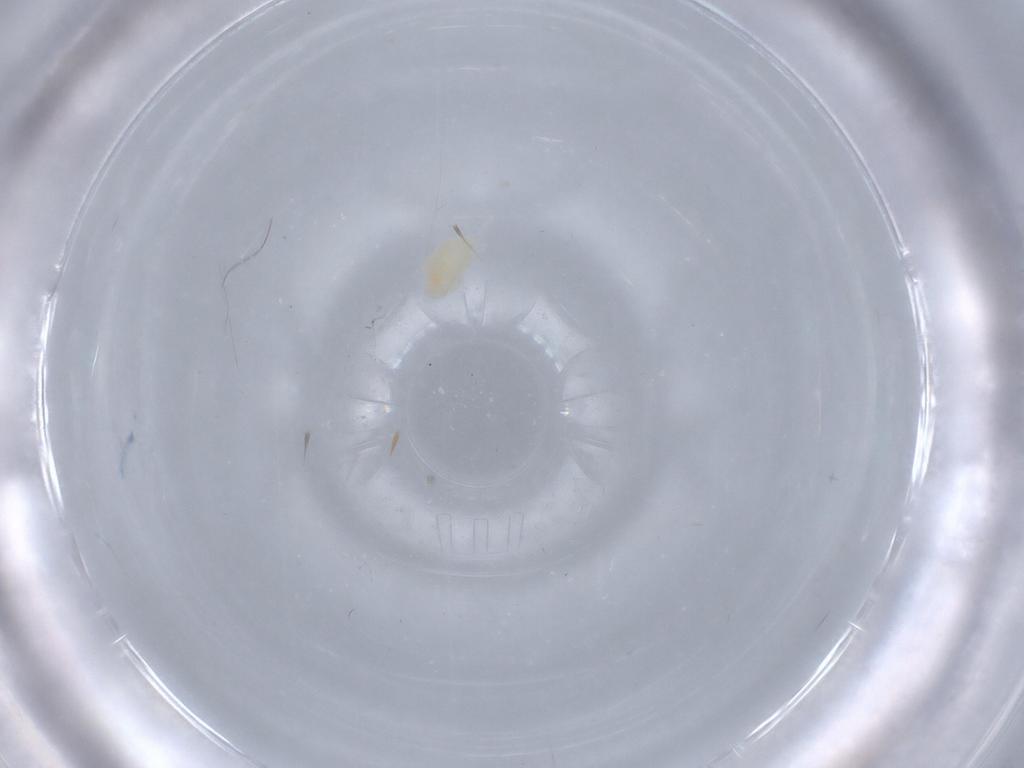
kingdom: Animalia
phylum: Arthropoda
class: Arachnida
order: Trombidiformes
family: Eupodidae
